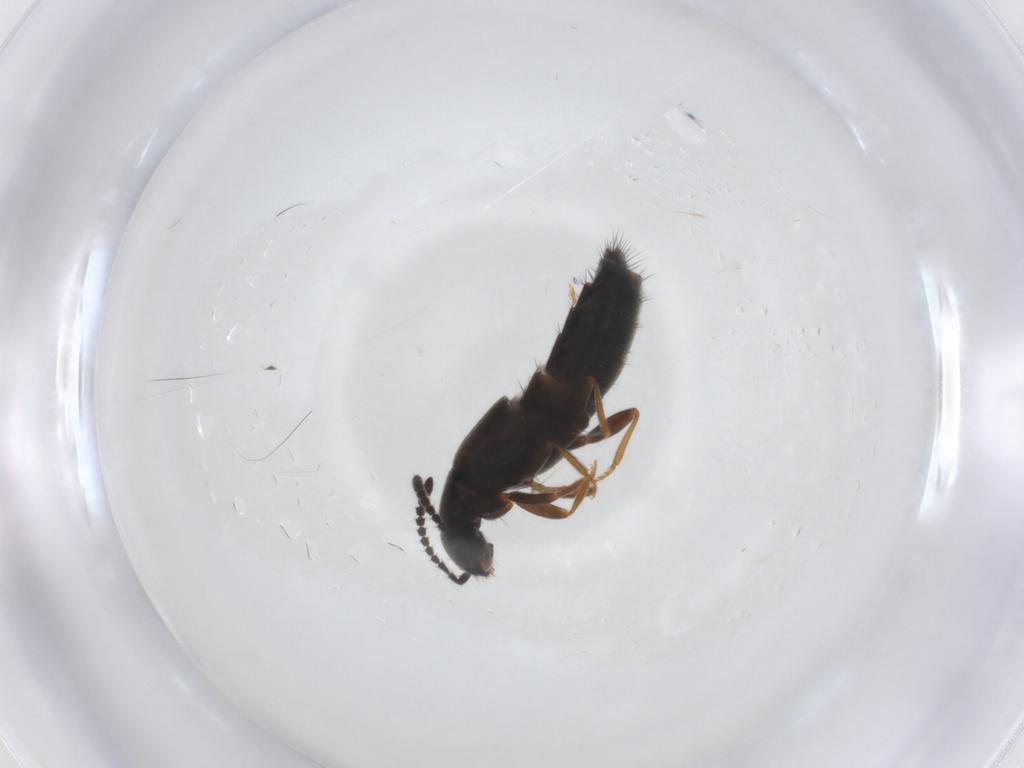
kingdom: Animalia
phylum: Arthropoda
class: Insecta
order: Coleoptera
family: Staphylinidae
